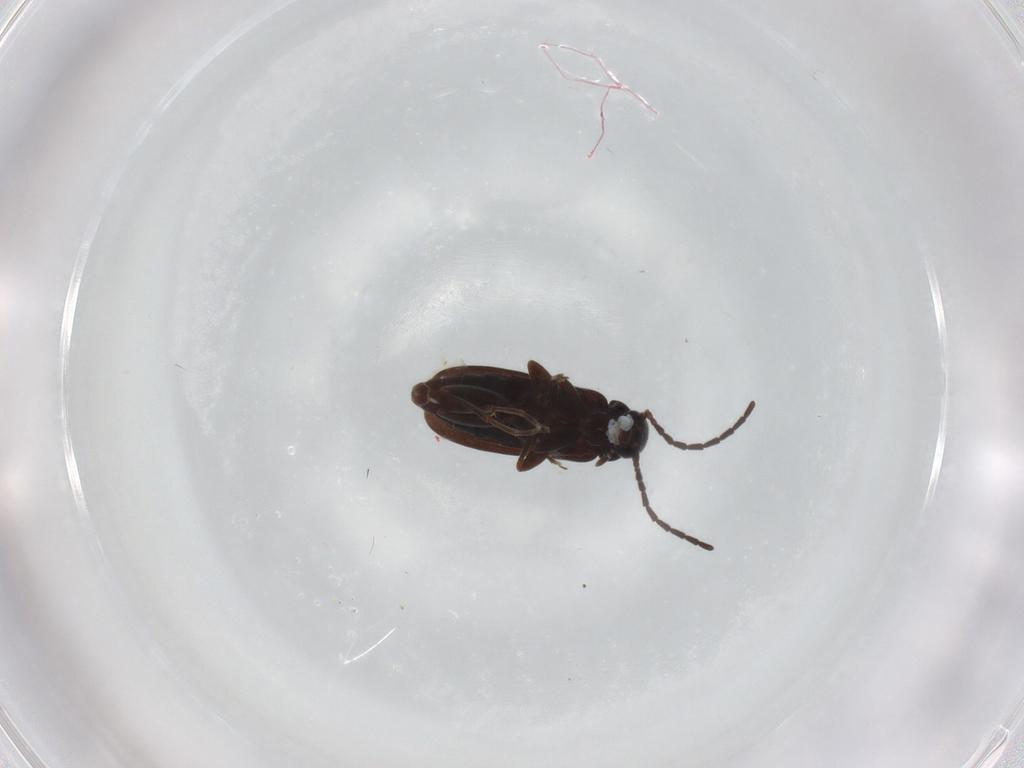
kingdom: Animalia
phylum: Arthropoda
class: Insecta
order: Coleoptera
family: Scraptiidae
